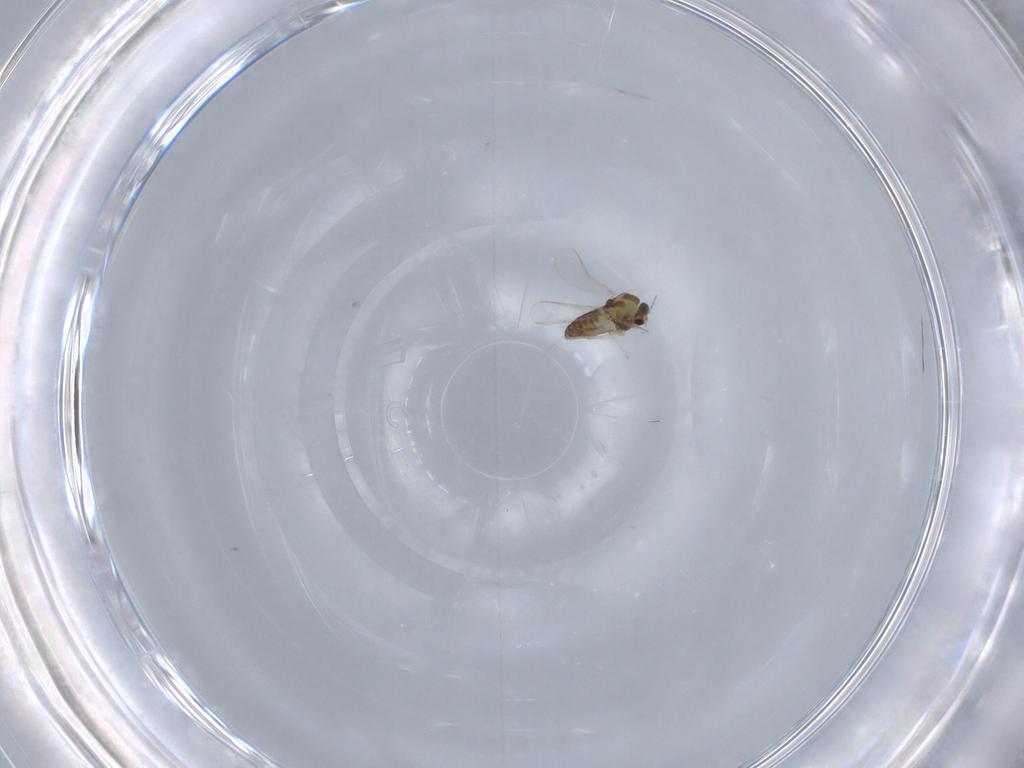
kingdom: Animalia
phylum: Arthropoda
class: Insecta
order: Diptera
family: Chironomidae
